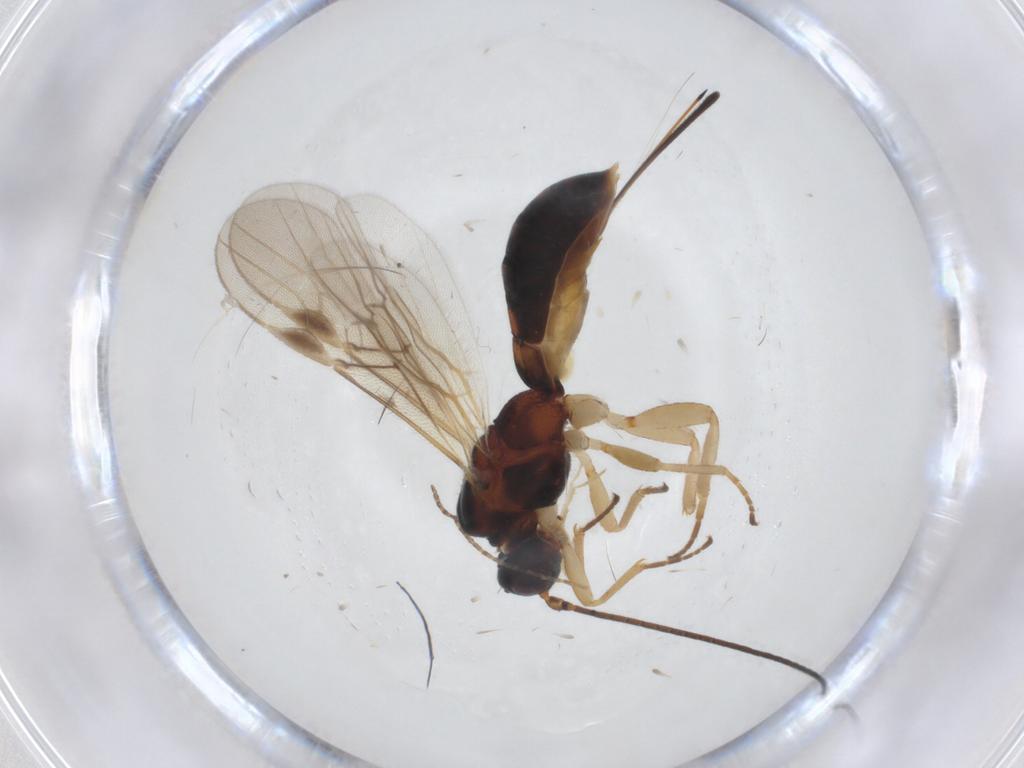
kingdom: Animalia
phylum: Arthropoda
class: Insecta
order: Hymenoptera
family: Braconidae
